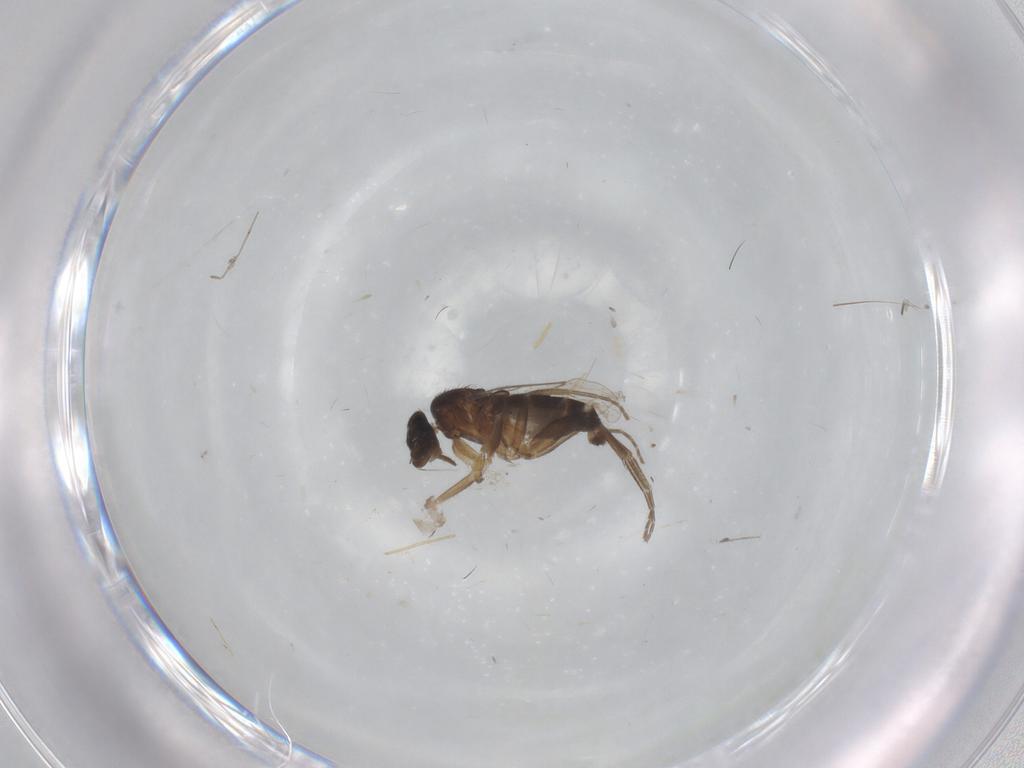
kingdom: Animalia
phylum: Arthropoda
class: Insecta
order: Diptera
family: Phoridae
